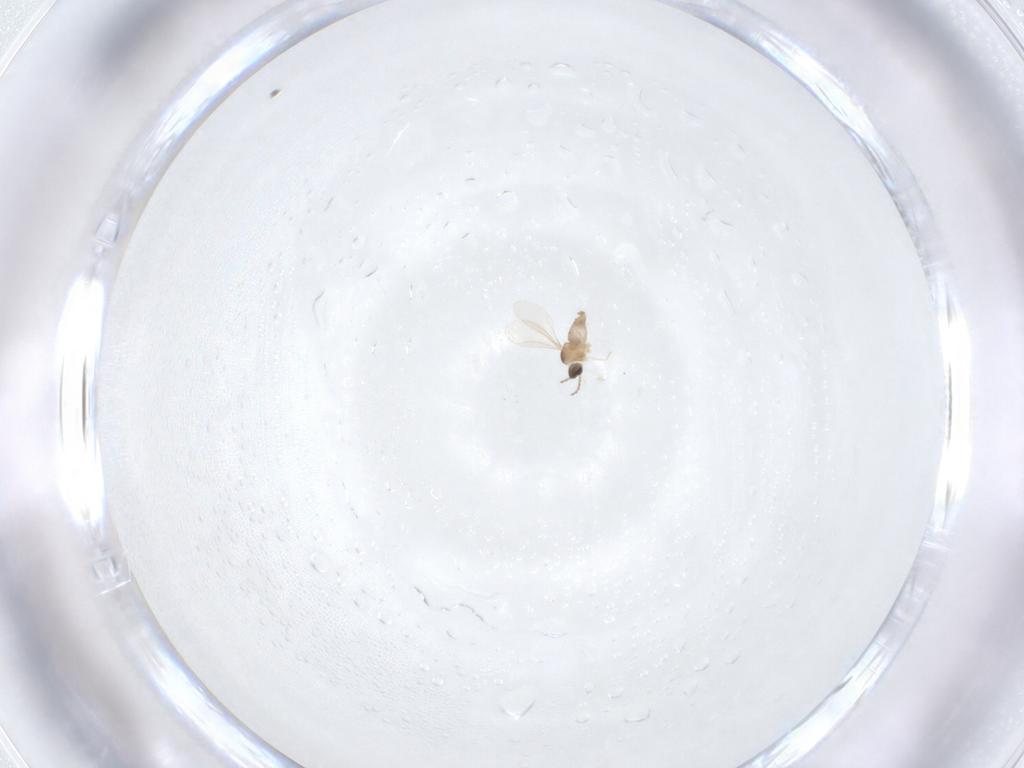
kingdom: Animalia
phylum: Arthropoda
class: Insecta
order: Diptera
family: Cecidomyiidae
